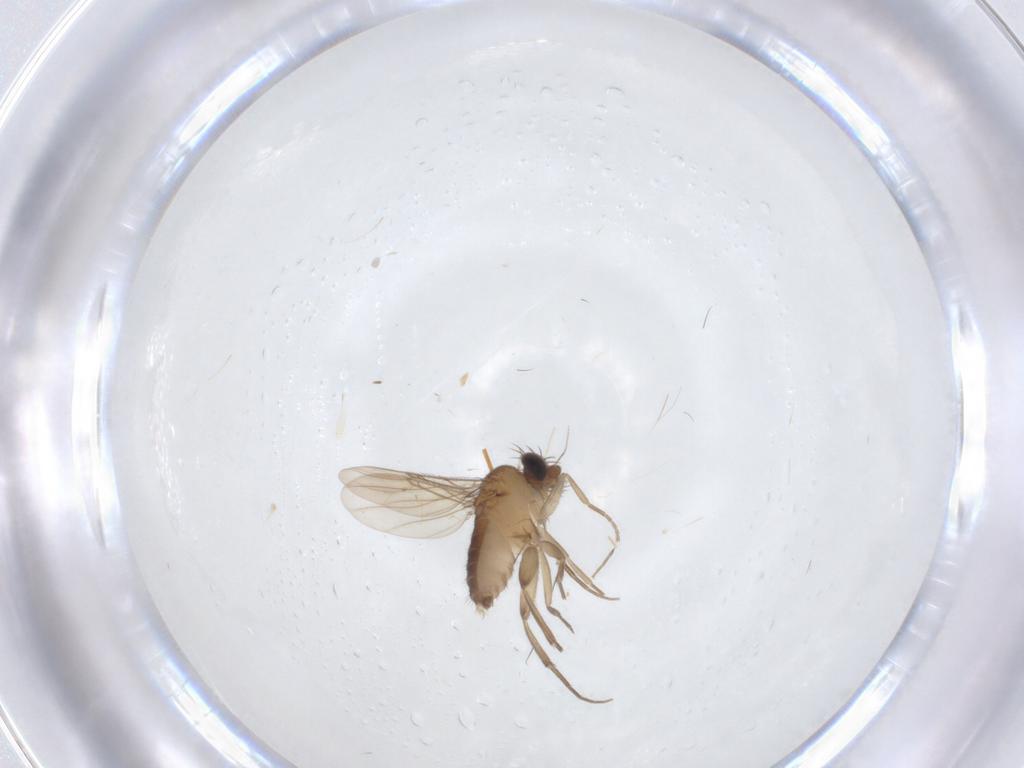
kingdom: Animalia
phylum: Arthropoda
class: Insecta
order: Diptera
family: Phoridae
